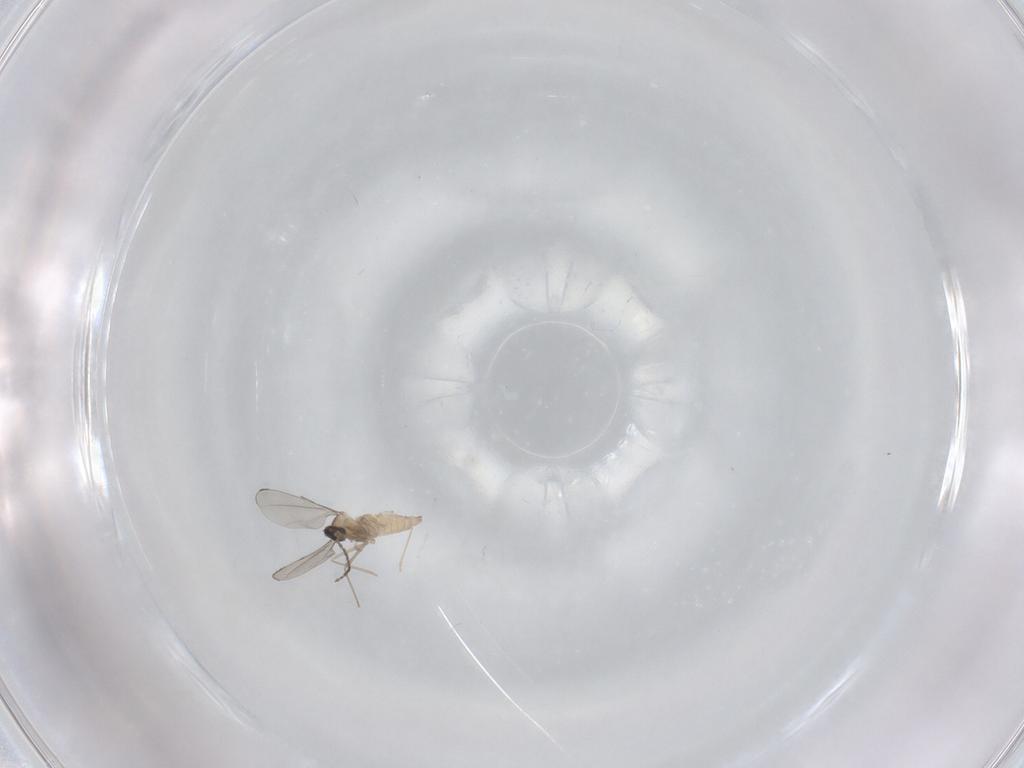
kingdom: Animalia
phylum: Arthropoda
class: Insecta
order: Diptera
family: Cecidomyiidae
